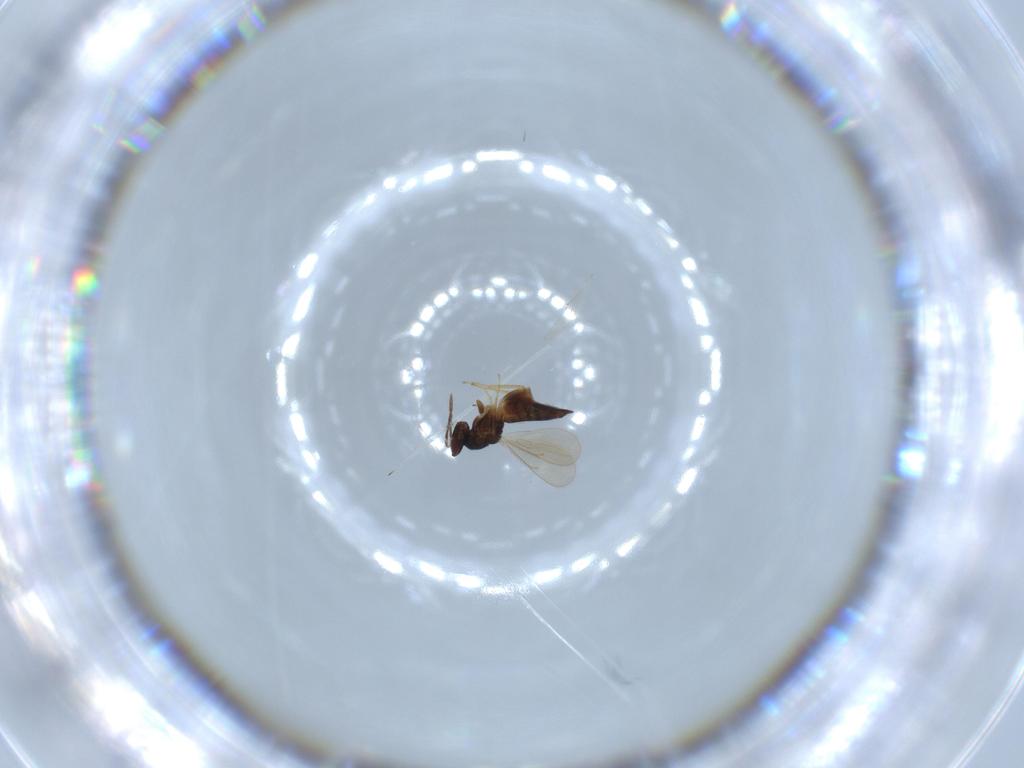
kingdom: Animalia
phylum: Arthropoda
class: Insecta
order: Hymenoptera
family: Eulophidae
